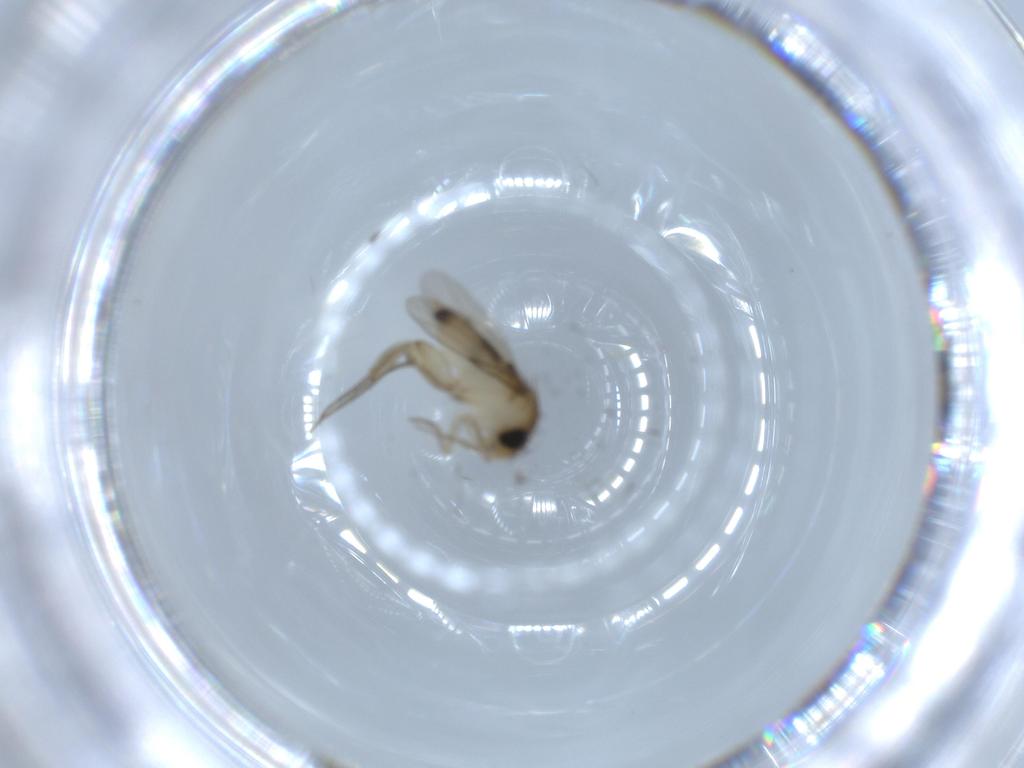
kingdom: Animalia
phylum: Arthropoda
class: Insecta
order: Diptera
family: Phoridae
